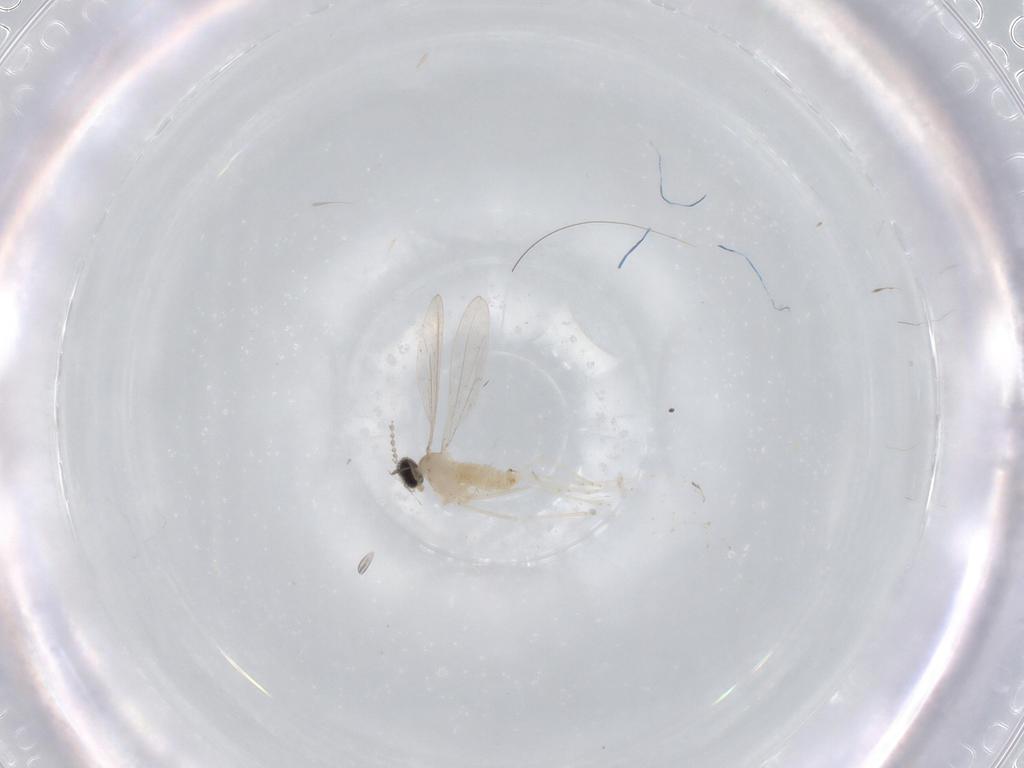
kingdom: Animalia
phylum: Arthropoda
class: Insecta
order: Diptera
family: Cecidomyiidae
